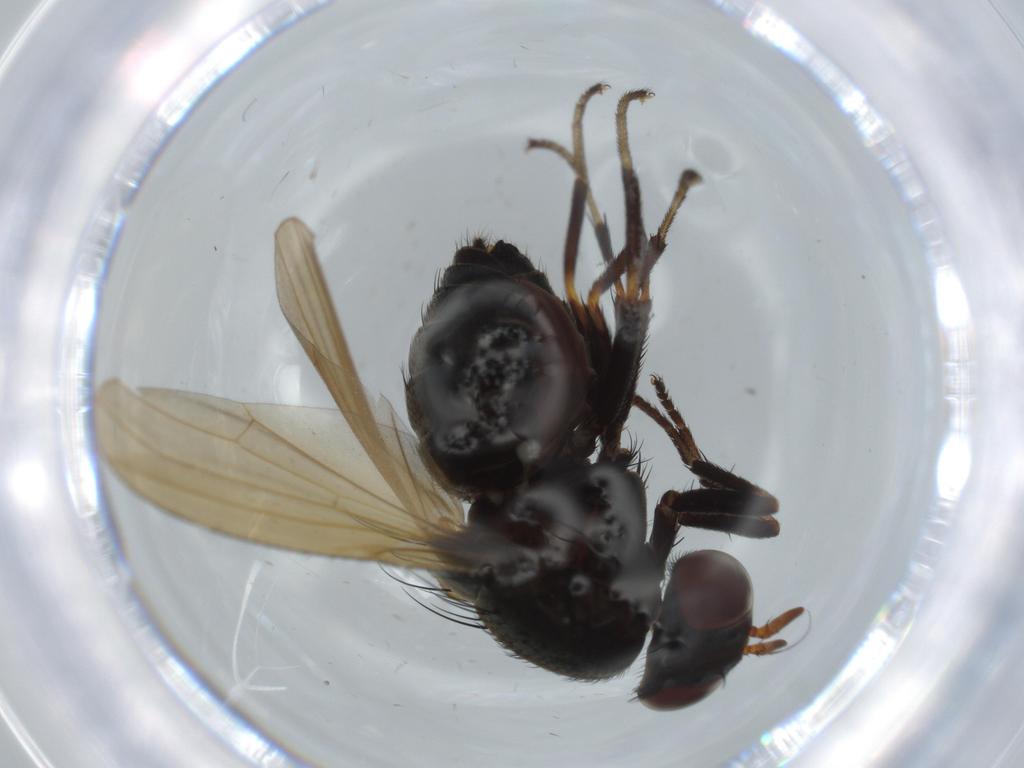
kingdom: Animalia
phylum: Arthropoda
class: Insecta
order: Diptera
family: Lauxaniidae
